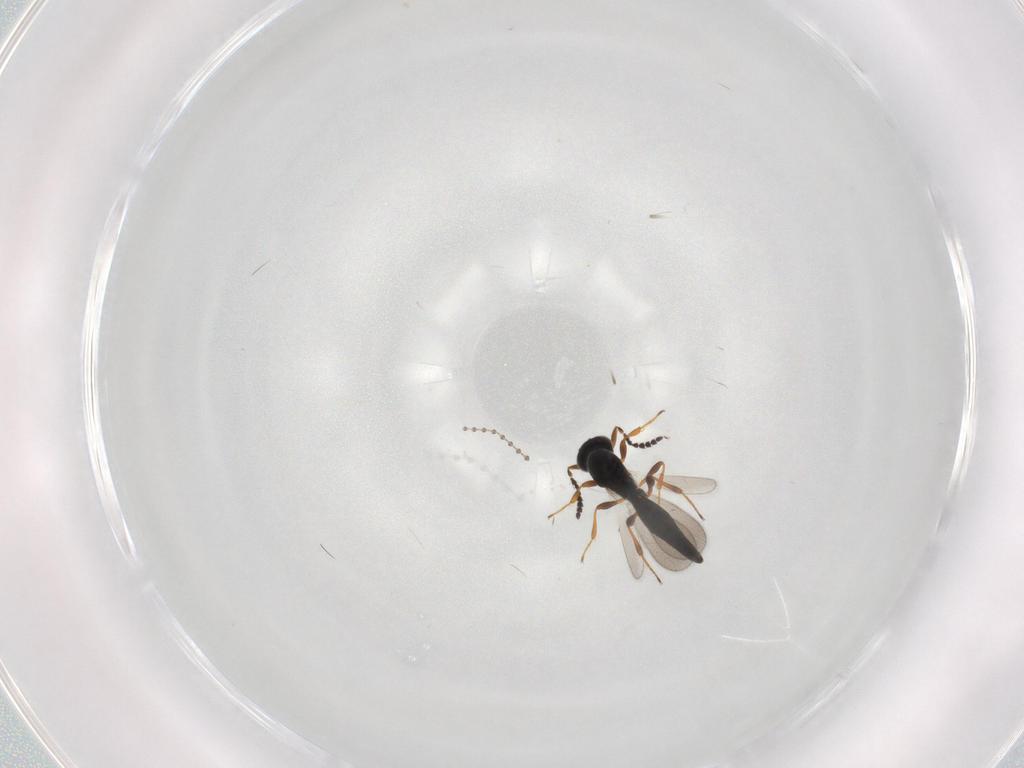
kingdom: Animalia
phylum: Arthropoda
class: Insecta
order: Hymenoptera
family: Platygastridae
